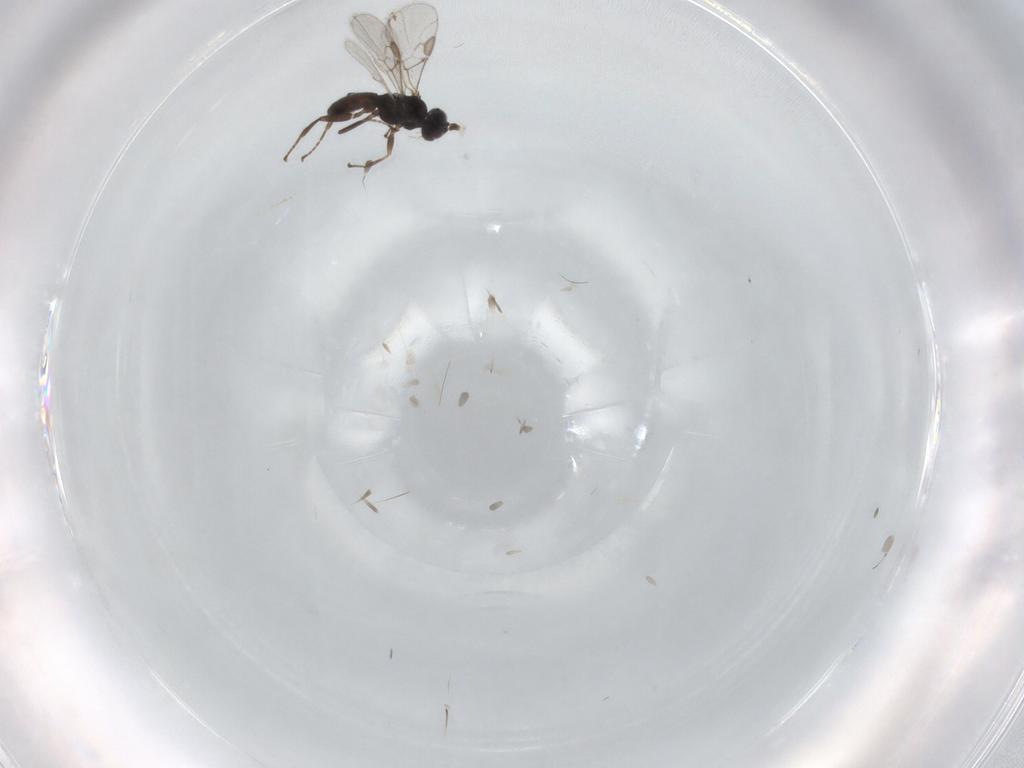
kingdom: Animalia
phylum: Arthropoda
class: Insecta
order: Hymenoptera
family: Braconidae
